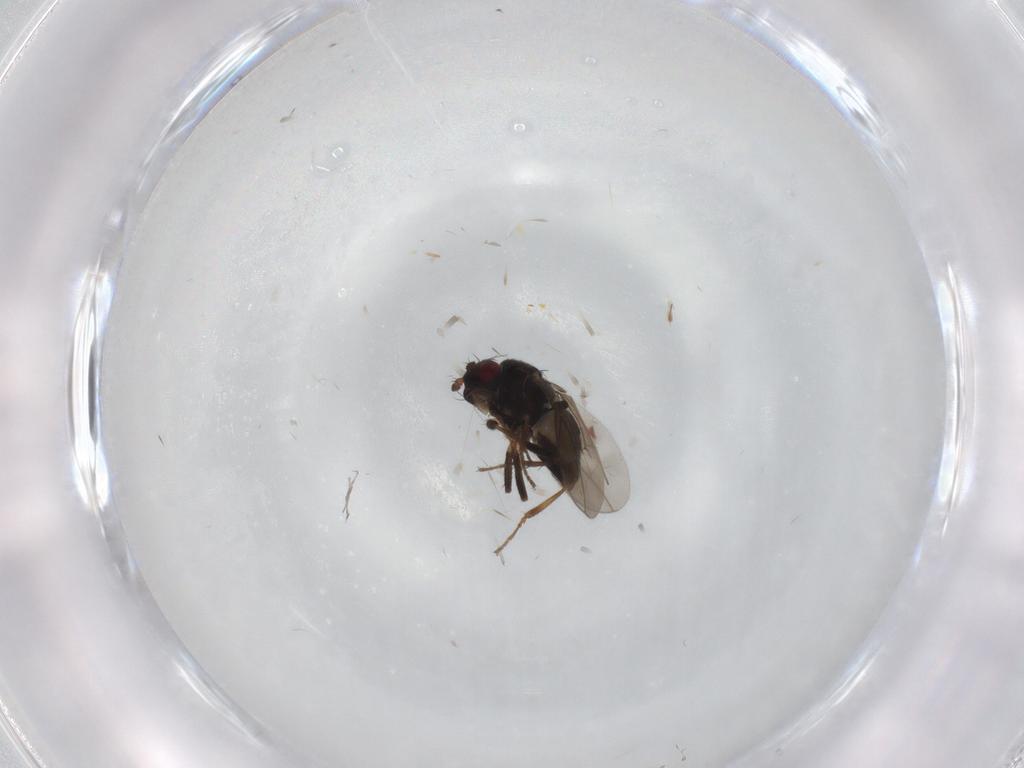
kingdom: Animalia
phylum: Arthropoda
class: Insecta
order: Diptera
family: Sphaeroceridae
